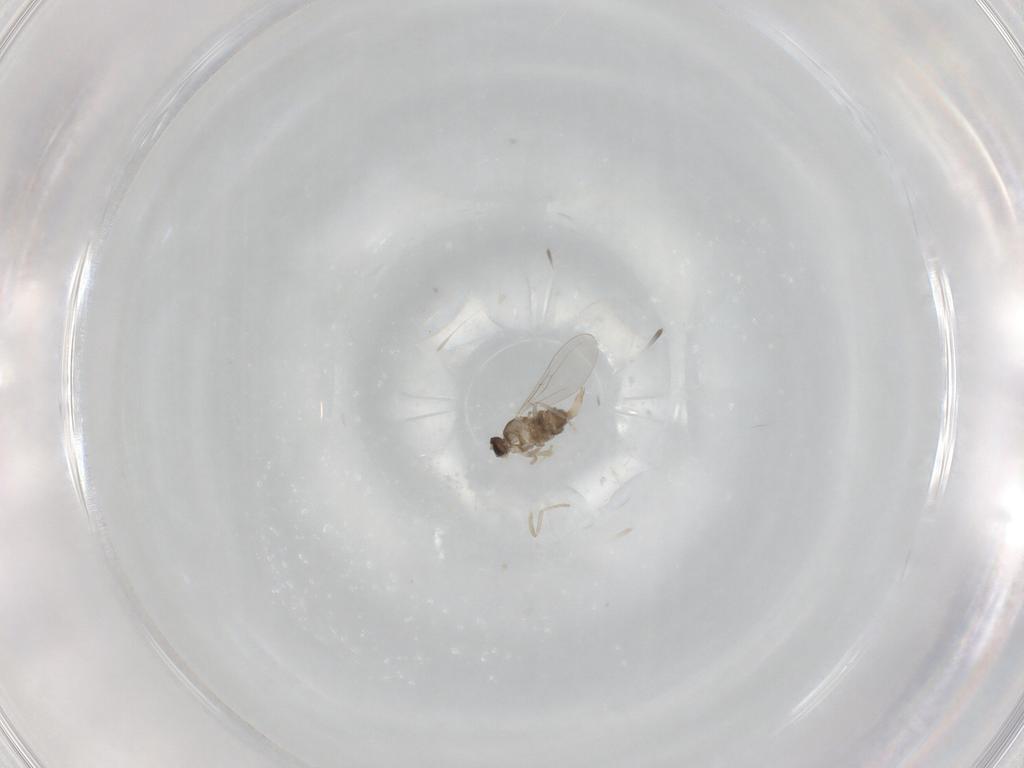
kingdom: Animalia
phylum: Arthropoda
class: Insecta
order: Diptera
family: Cecidomyiidae
